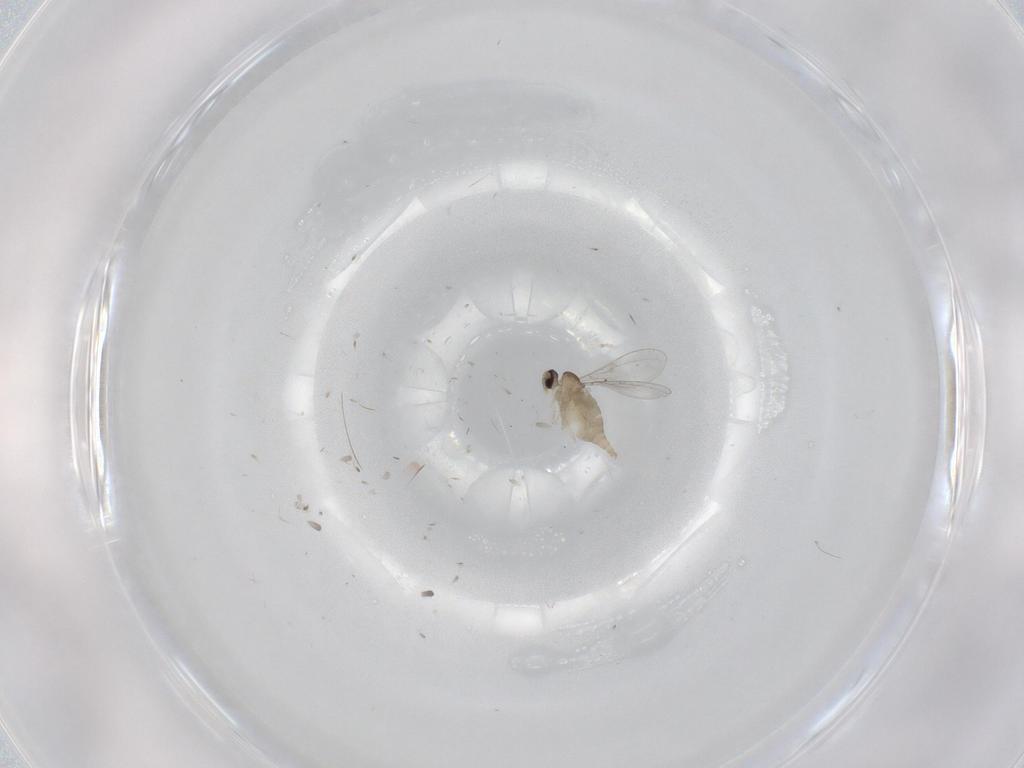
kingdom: Animalia
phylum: Arthropoda
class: Insecta
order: Diptera
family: Cecidomyiidae
